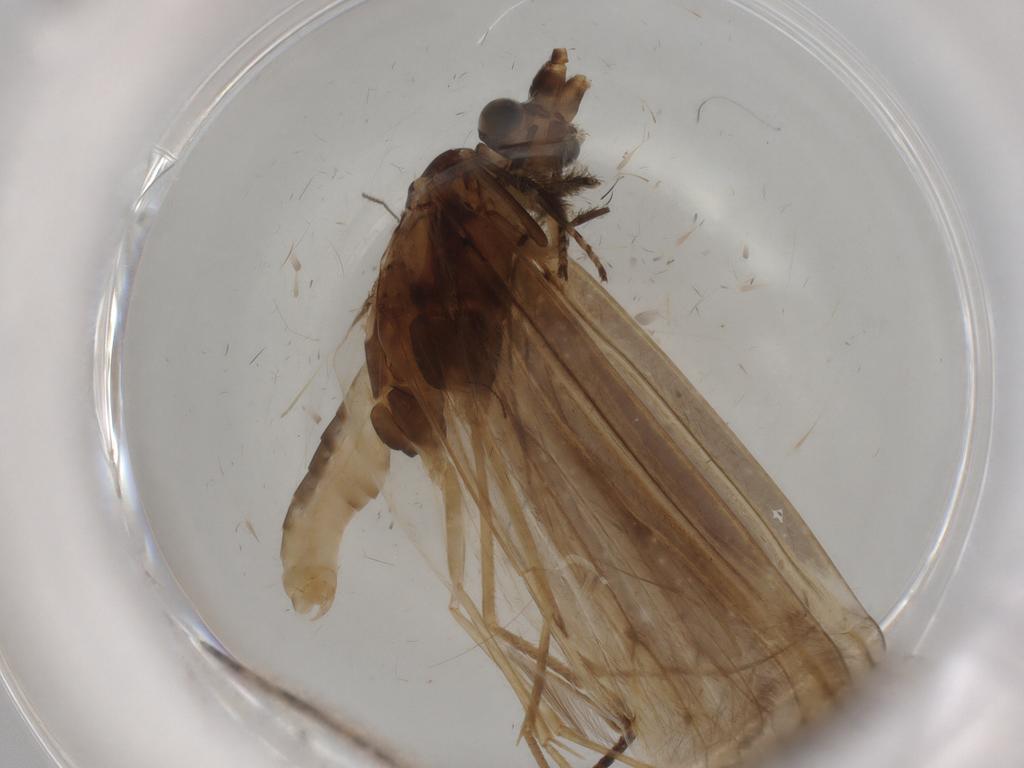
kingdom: Animalia
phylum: Arthropoda
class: Insecta
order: Trichoptera
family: Leptoceridae
